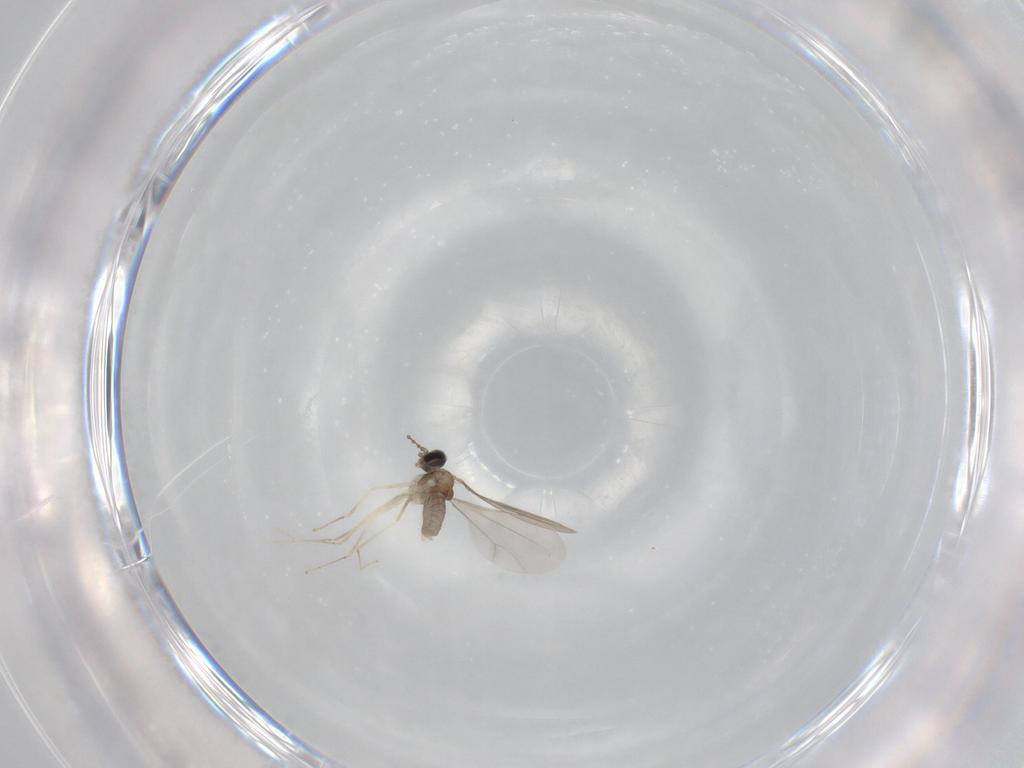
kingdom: Animalia
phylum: Arthropoda
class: Insecta
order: Diptera
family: Cecidomyiidae
